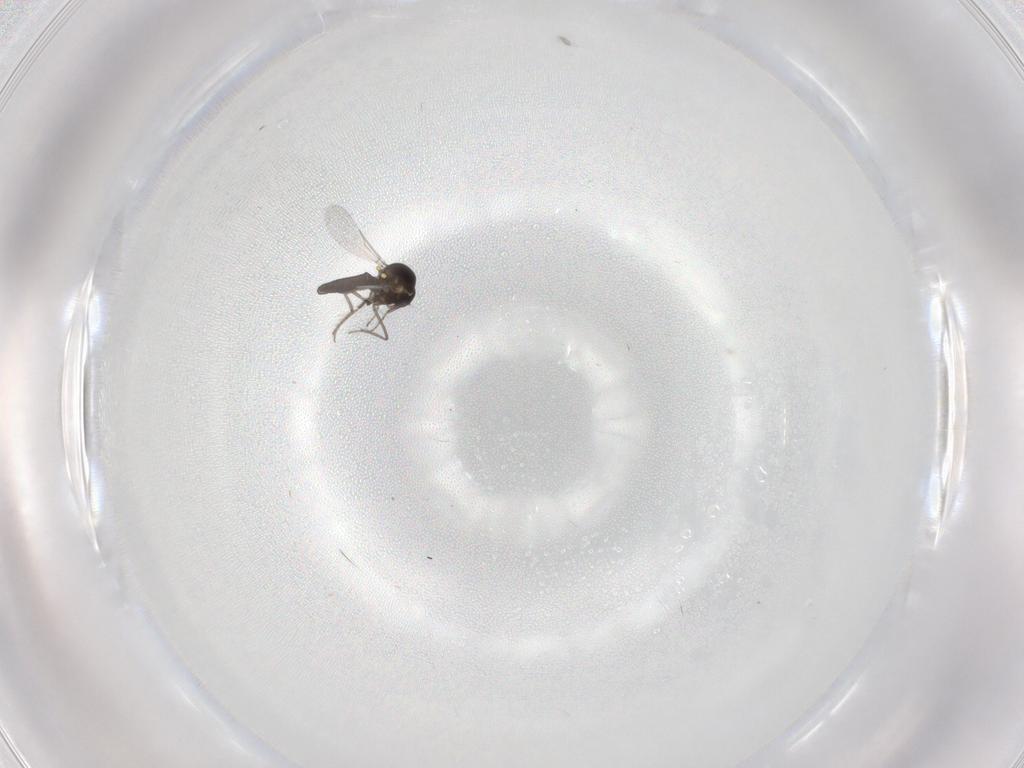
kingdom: Animalia
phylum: Arthropoda
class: Insecta
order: Diptera
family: Ceratopogonidae
